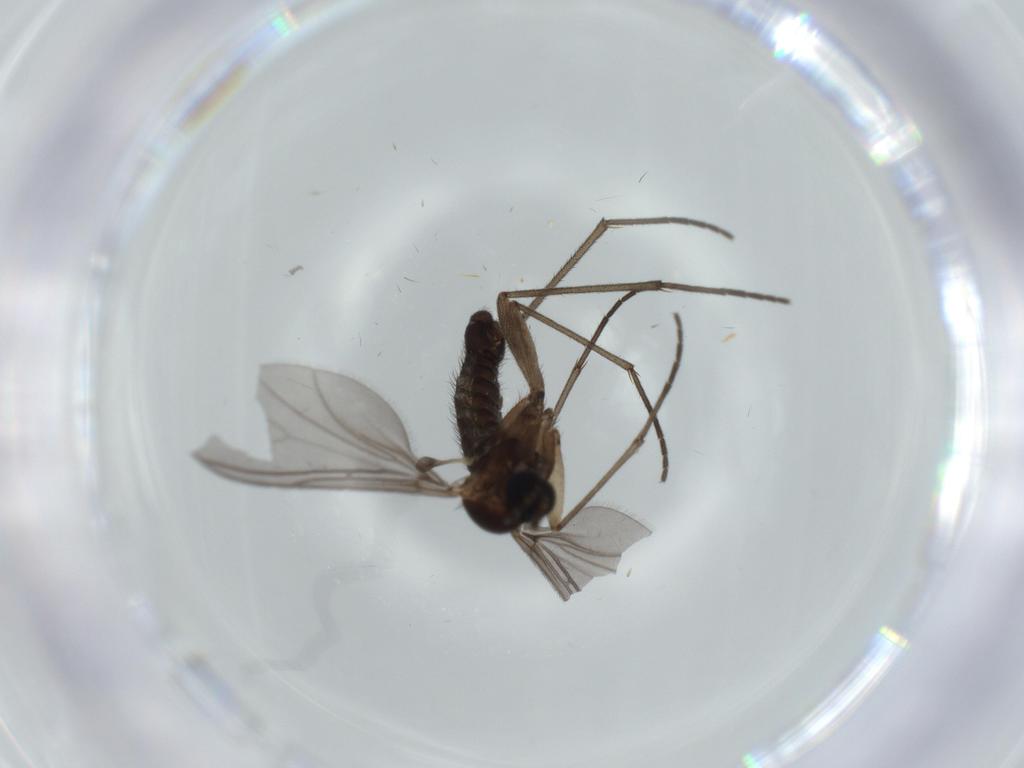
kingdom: Animalia
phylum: Arthropoda
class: Insecta
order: Diptera
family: Sciaridae
